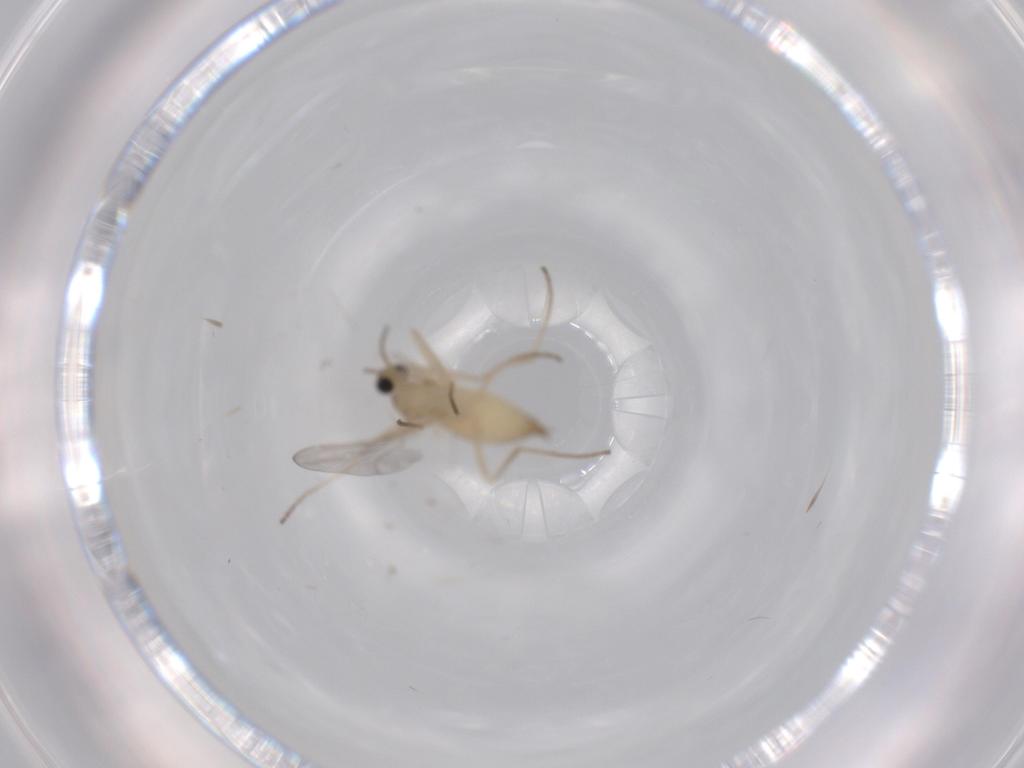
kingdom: Animalia
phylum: Arthropoda
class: Insecta
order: Diptera
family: Cecidomyiidae
